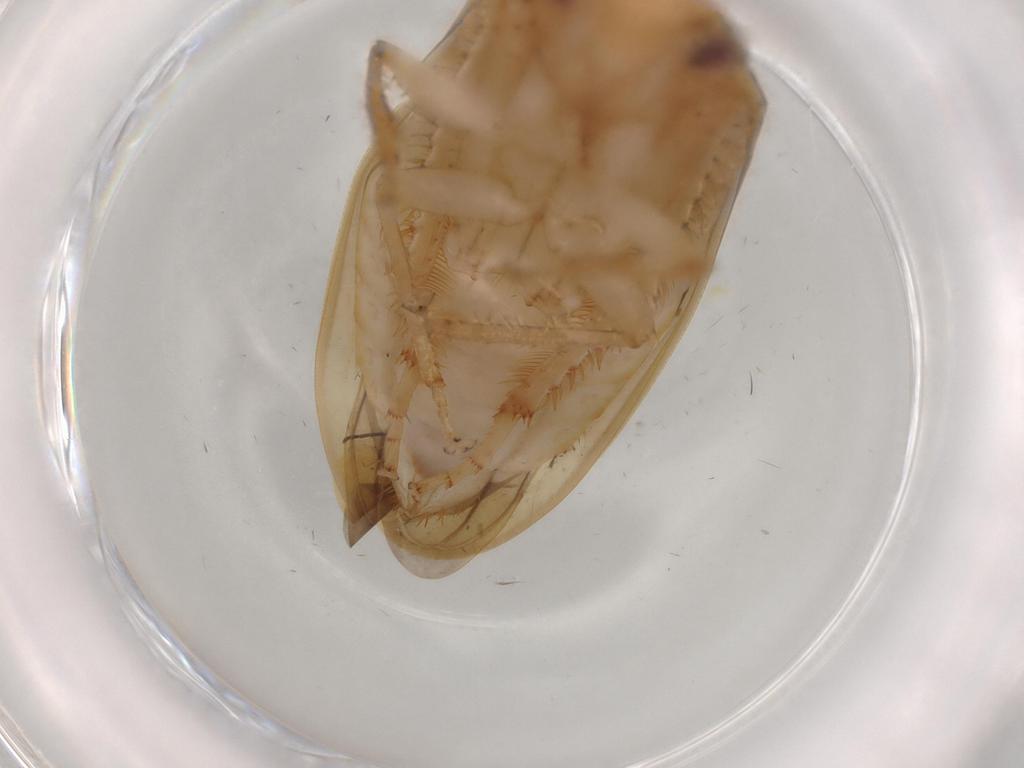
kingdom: Animalia
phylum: Arthropoda
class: Insecta
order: Hemiptera
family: Cicadellidae
